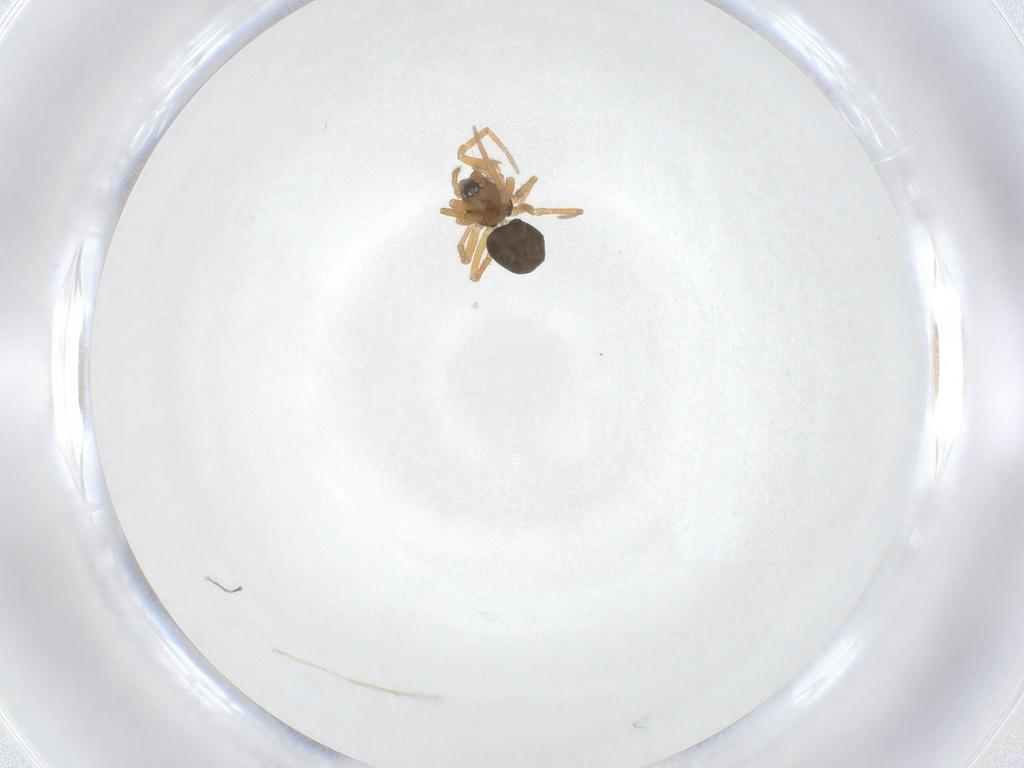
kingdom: Animalia
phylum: Arthropoda
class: Arachnida
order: Araneae
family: Linyphiidae
